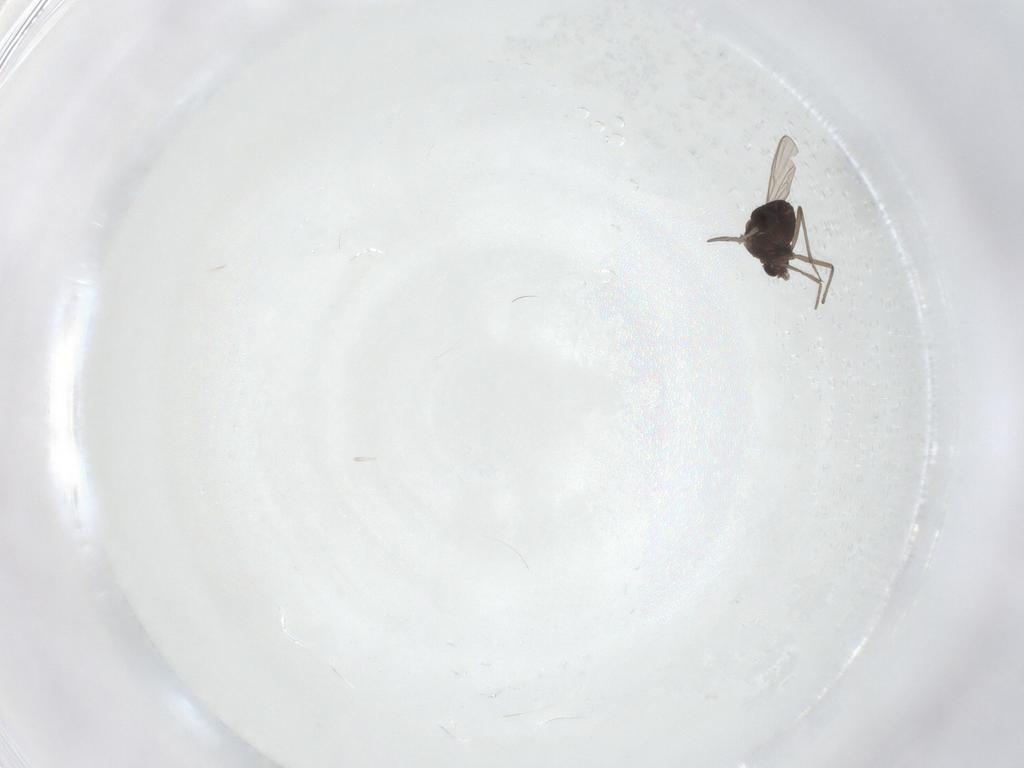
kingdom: Animalia
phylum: Arthropoda
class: Insecta
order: Diptera
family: Chironomidae
